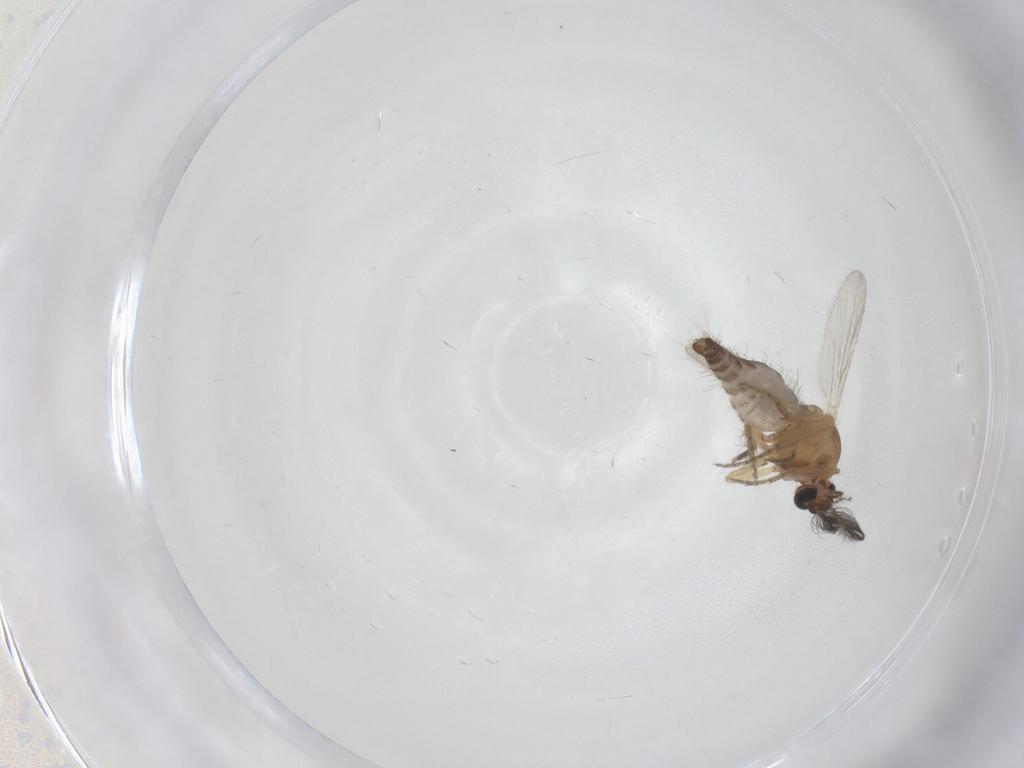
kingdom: Animalia
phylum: Arthropoda
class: Insecta
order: Diptera
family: Ceratopogonidae
